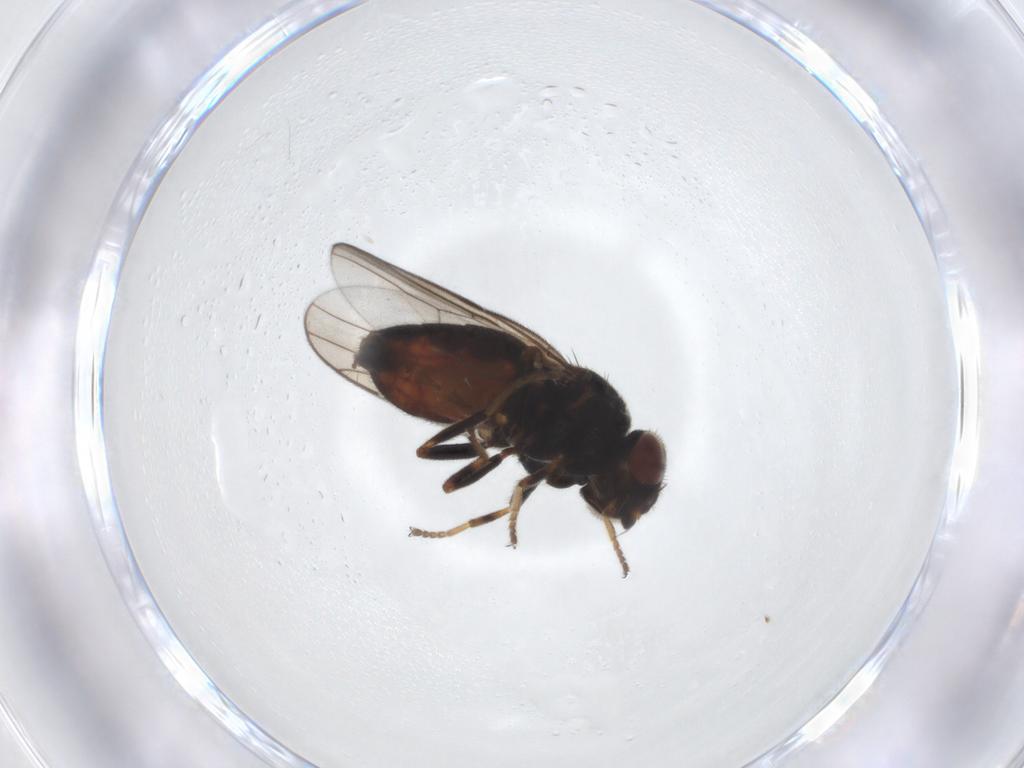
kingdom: Animalia
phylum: Arthropoda
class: Insecta
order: Diptera
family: Chloropidae
